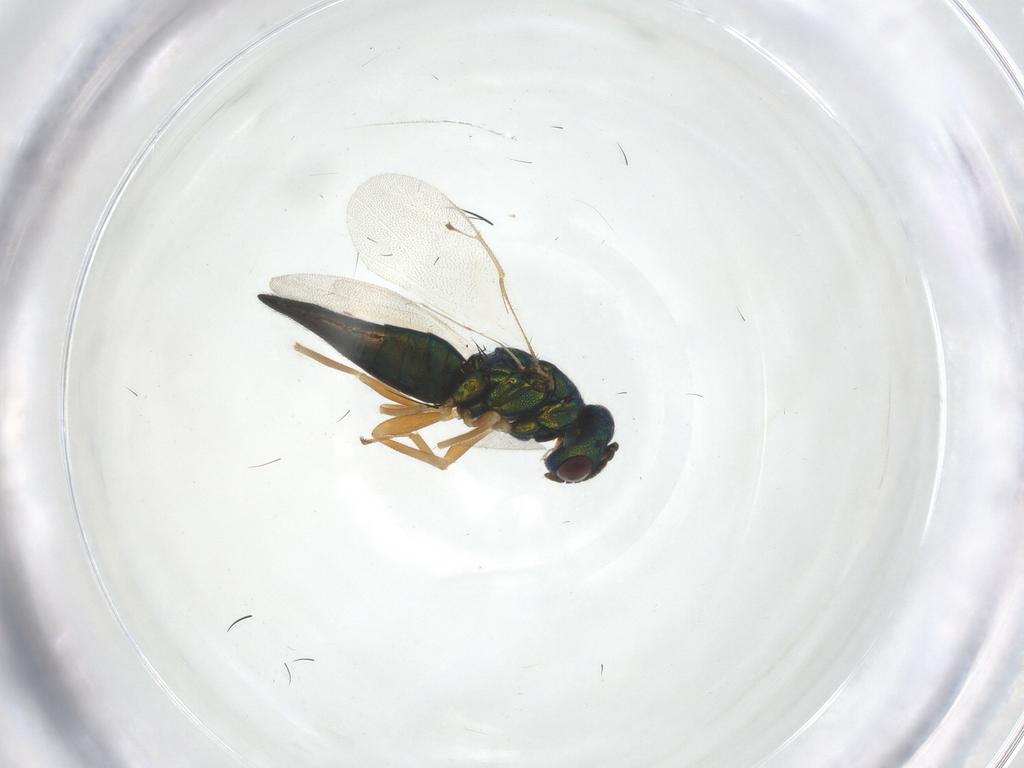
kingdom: Animalia
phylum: Arthropoda
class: Insecta
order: Hymenoptera
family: Pteromalidae
